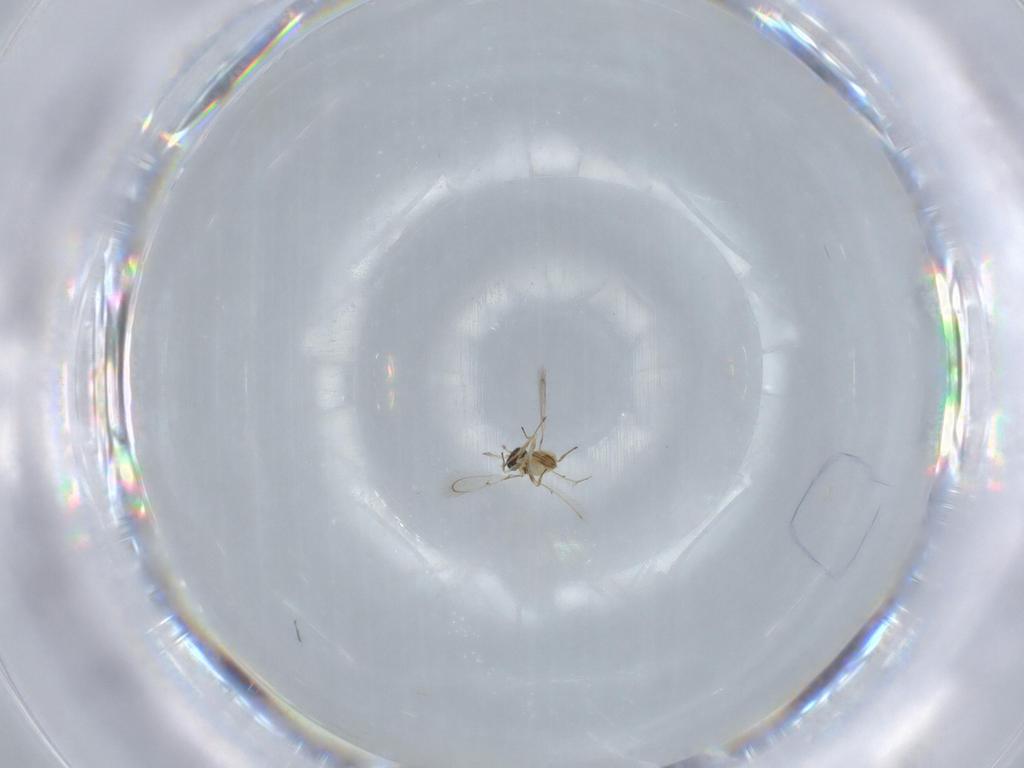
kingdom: Animalia
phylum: Arthropoda
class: Insecta
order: Hymenoptera
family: Trichogrammatidae
